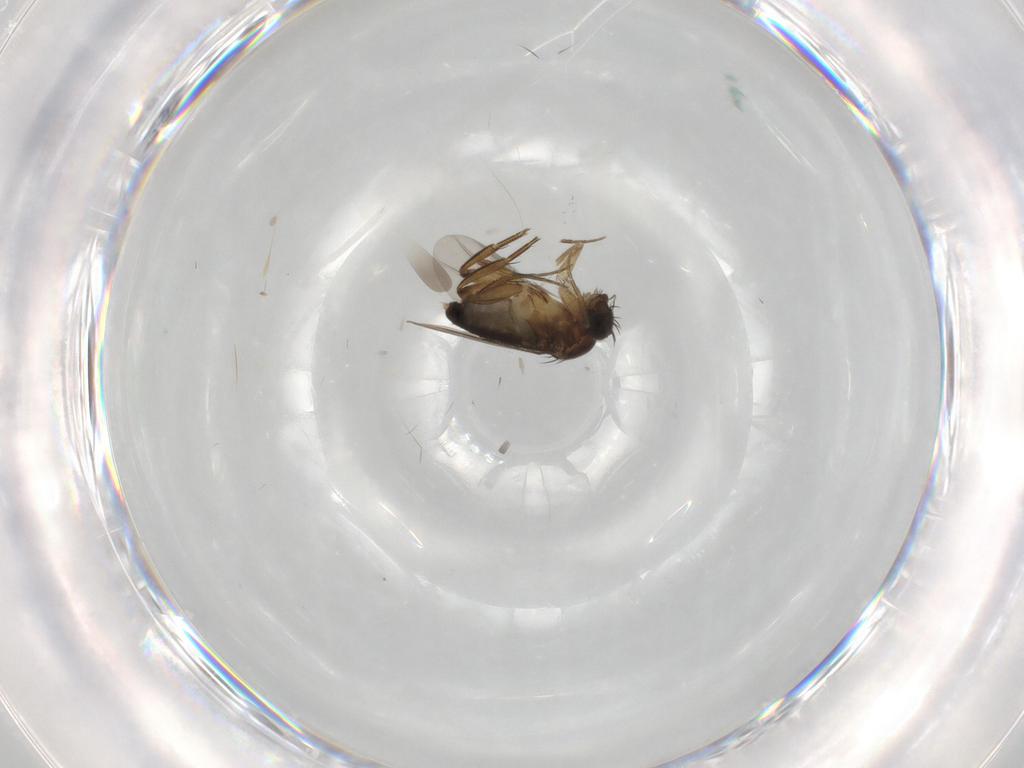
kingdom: Animalia
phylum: Arthropoda
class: Insecta
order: Diptera
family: Phoridae
